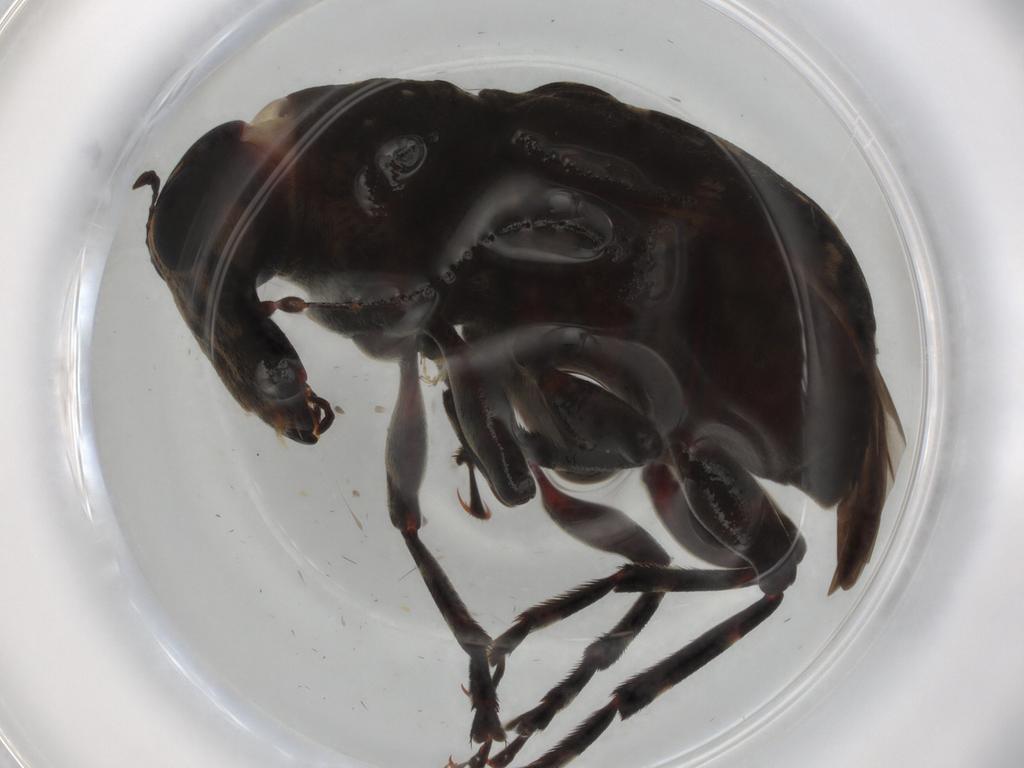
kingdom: Animalia
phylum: Arthropoda
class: Insecta
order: Coleoptera
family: Anthribidae
